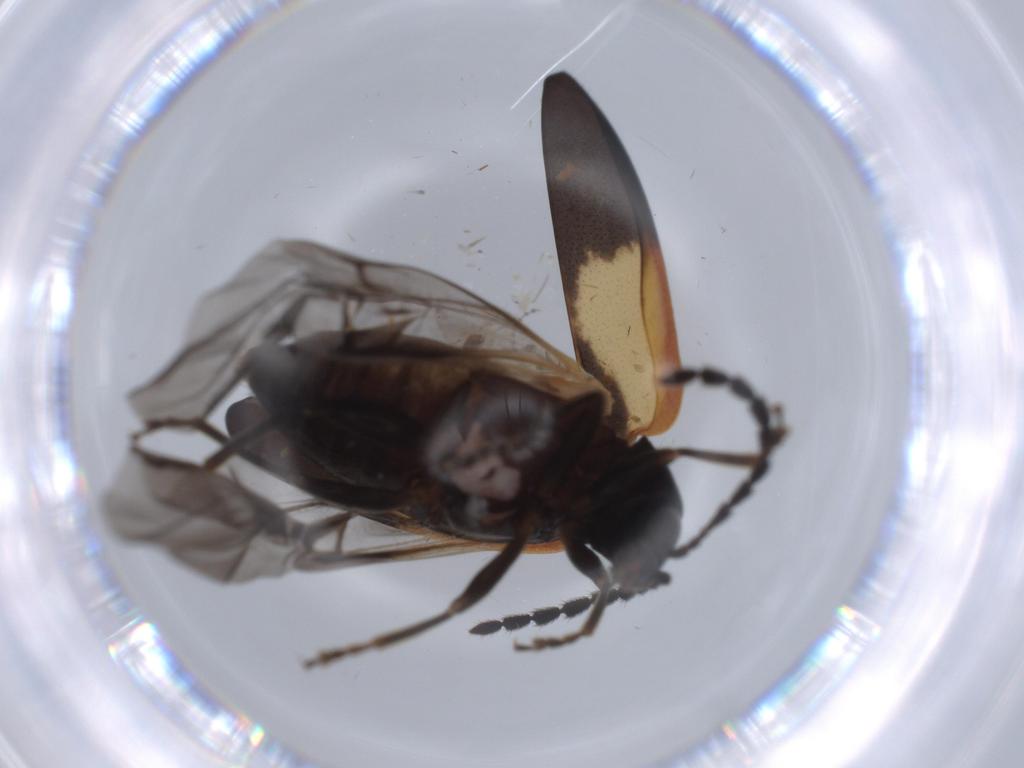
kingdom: Animalia
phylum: Arthropoda
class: Insecta
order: Coleoptera
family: Chrysomelidae
